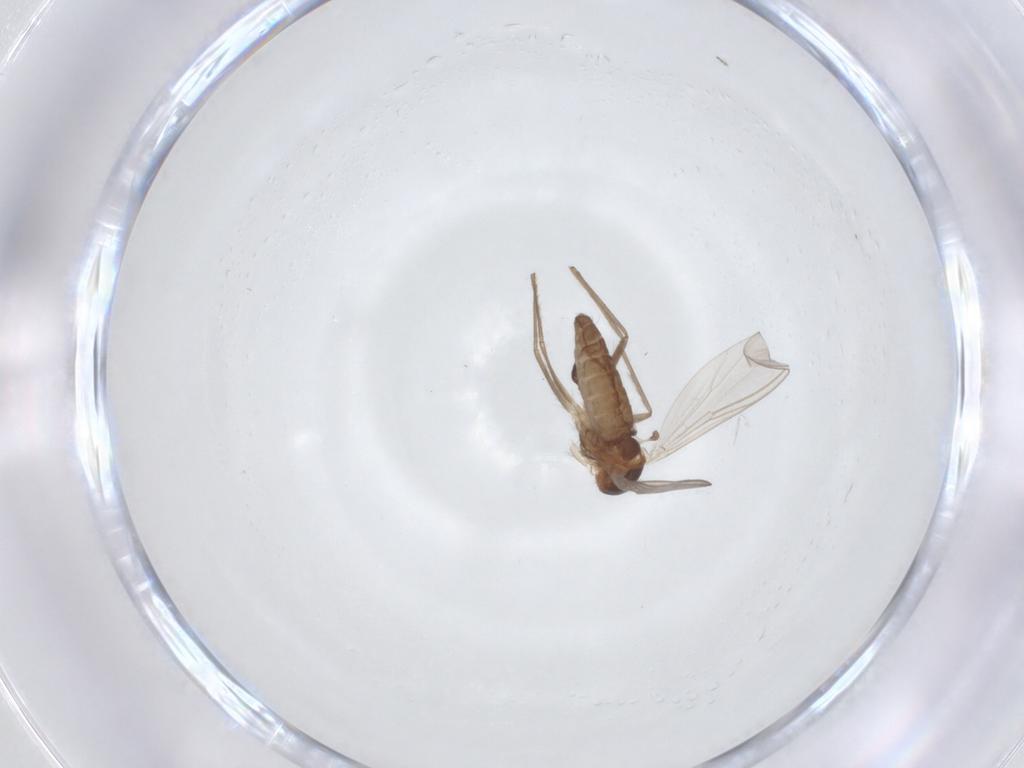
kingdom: Animalia
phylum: Arthropoda
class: Insecta
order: Diptera
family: Chironomidae
